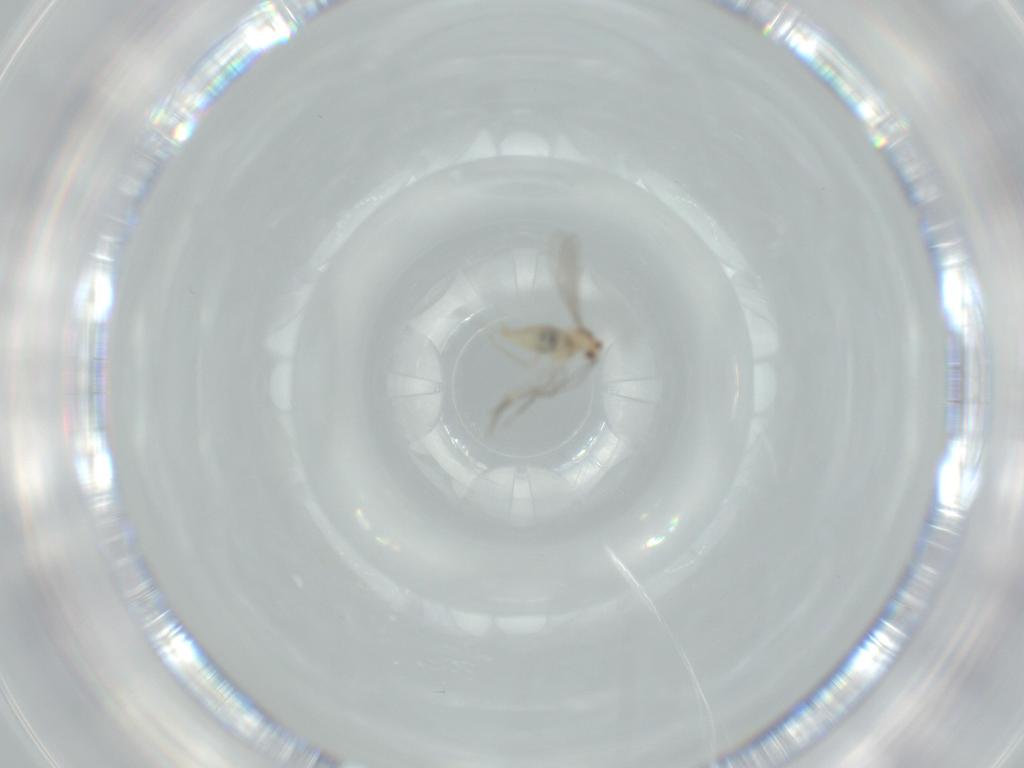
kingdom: Animalia
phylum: Arthropoda
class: Insecta
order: Diptera
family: Cecidomyiidae
